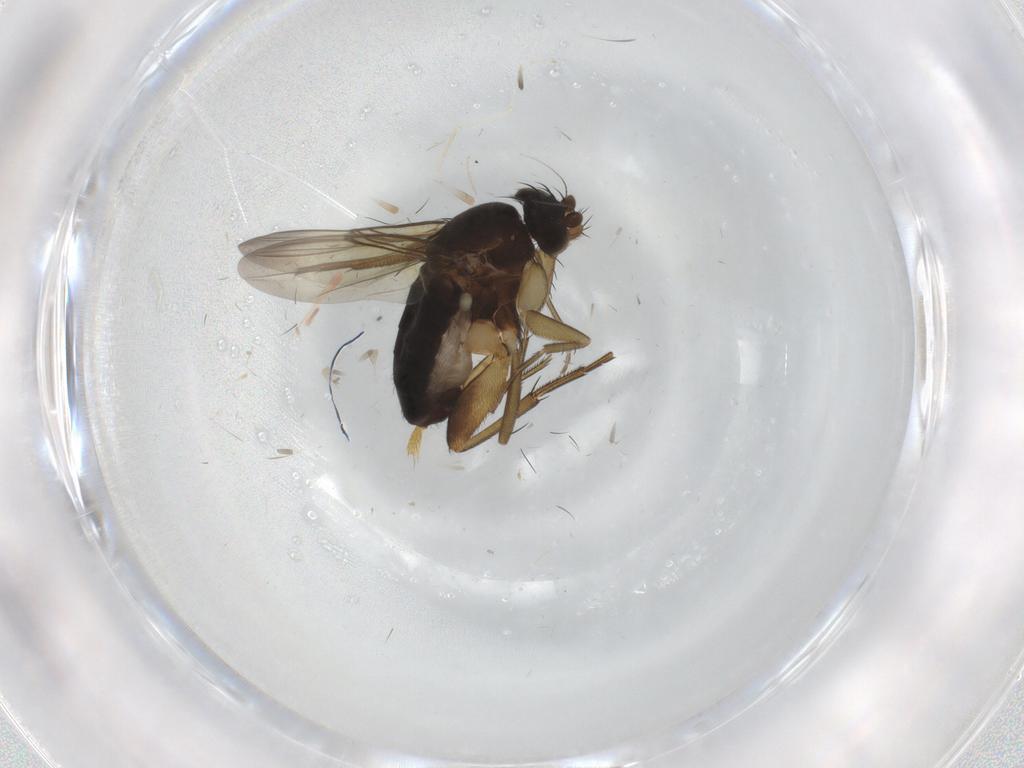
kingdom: Animalia
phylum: Arthropoda
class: Insecta
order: Diptera
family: Phoridae
